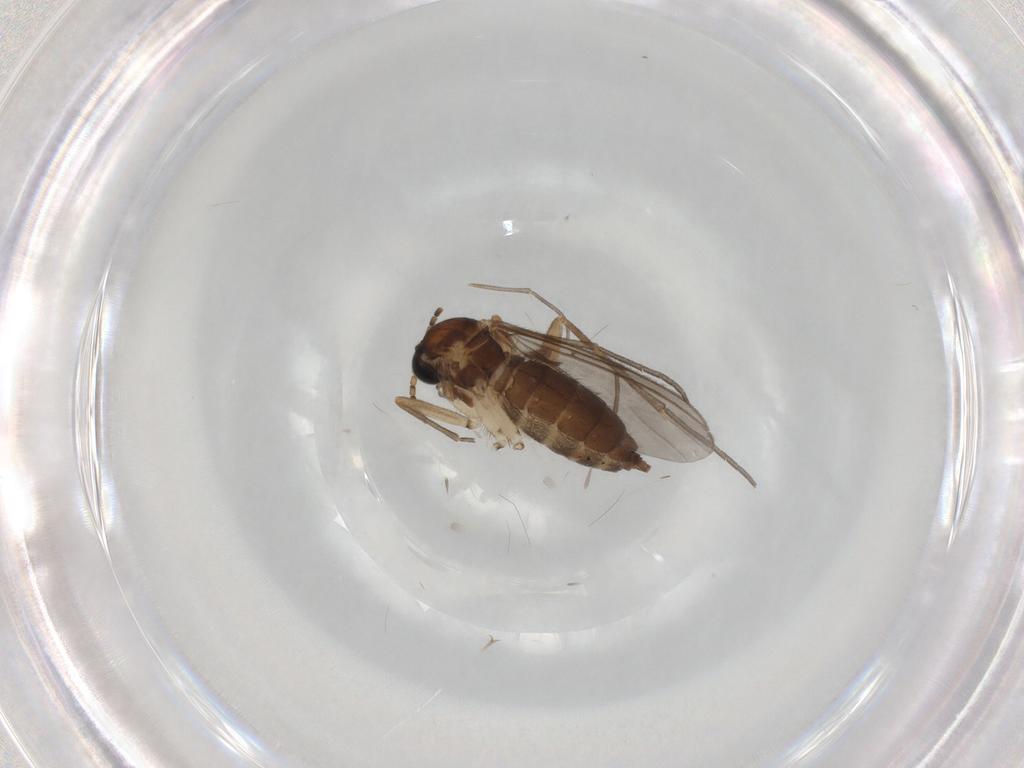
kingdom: Animalia
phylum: Arthropoda
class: Insecta
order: Diptera
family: Sciaridae
